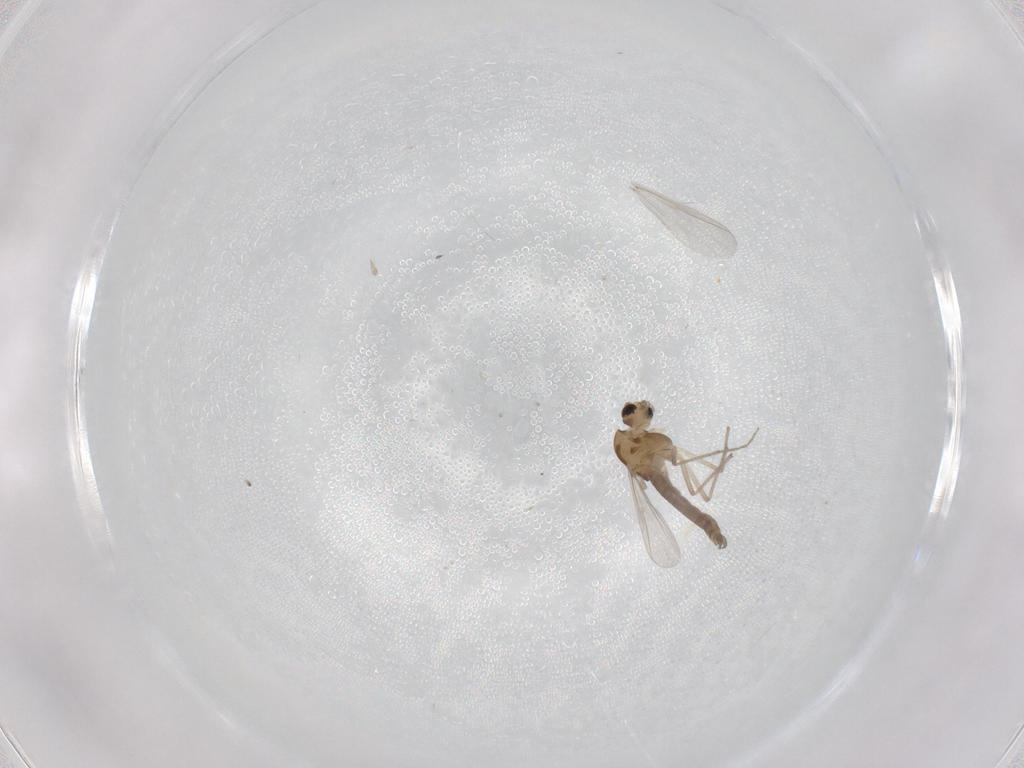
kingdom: Animalia
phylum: Arthropoda
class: Insecta
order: Diptera
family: Chironomidae
